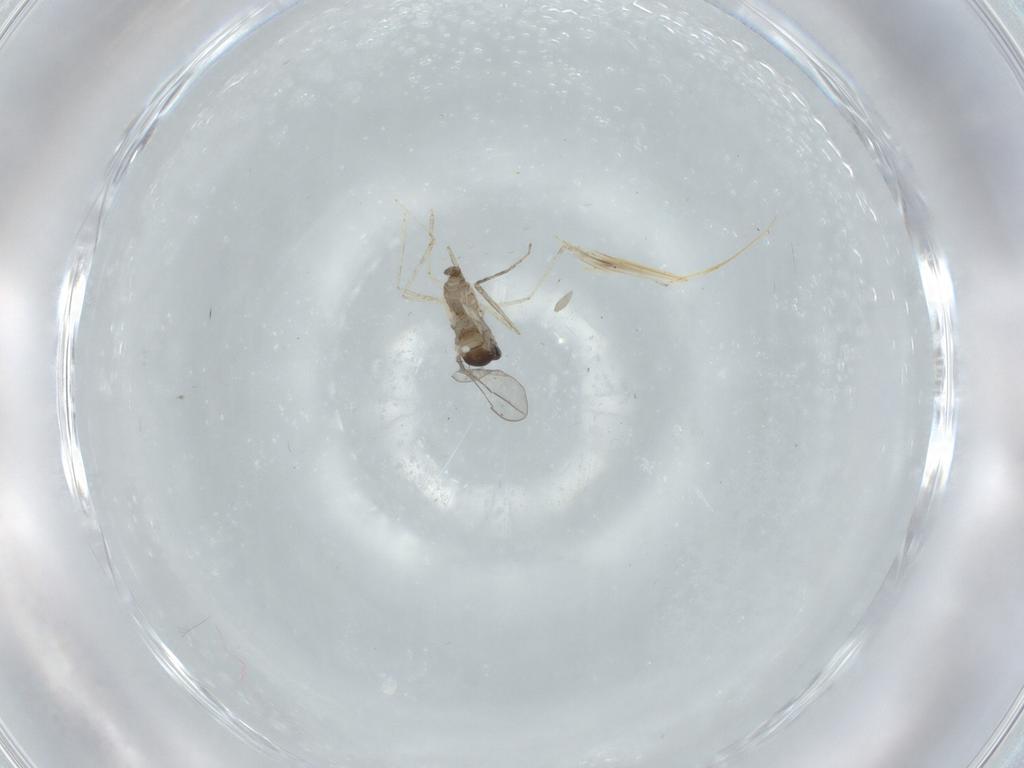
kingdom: Animalia
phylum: Arthropoda
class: Insecta
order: Diptera
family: Cecidomyiidae
